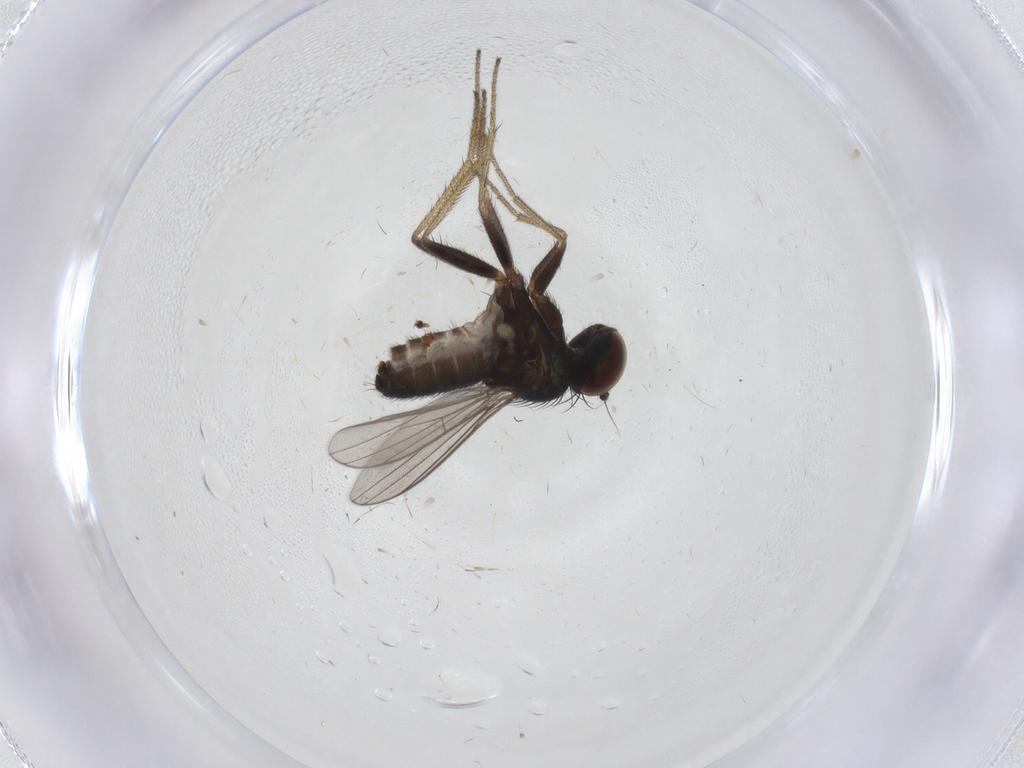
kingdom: Animalia
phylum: Arthropoda
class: Insecta
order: Diptera
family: Dolichopodidae
